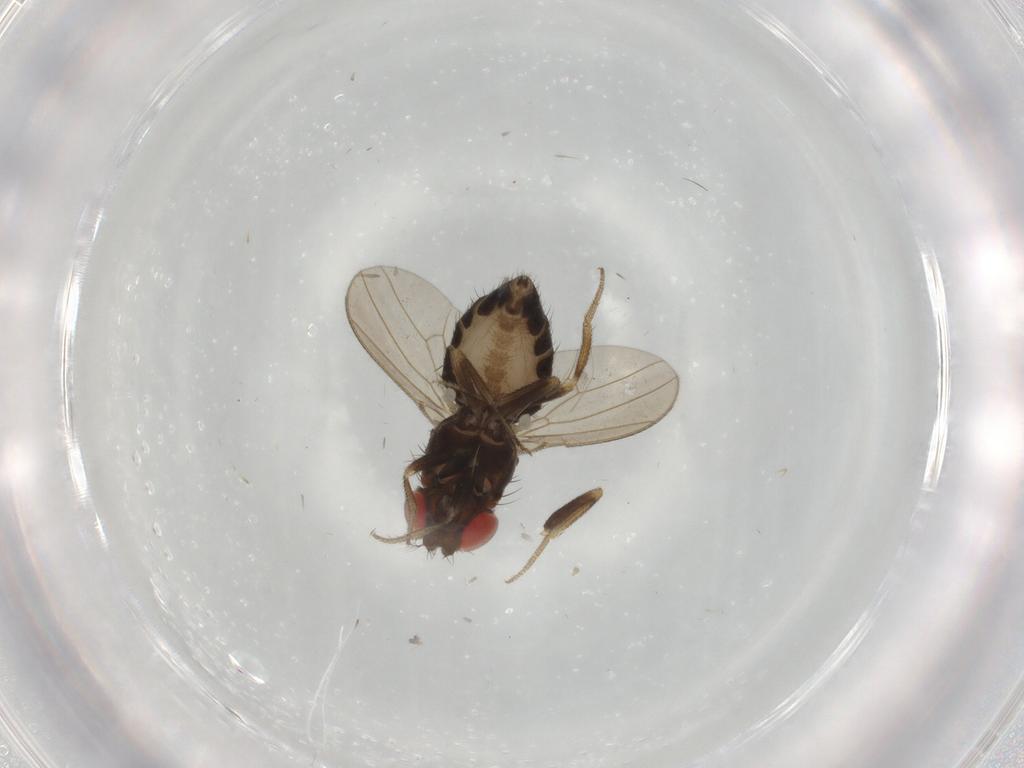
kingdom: Animalia
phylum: Arthropoda
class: Insecta
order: Diptera
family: Drosophilidae
